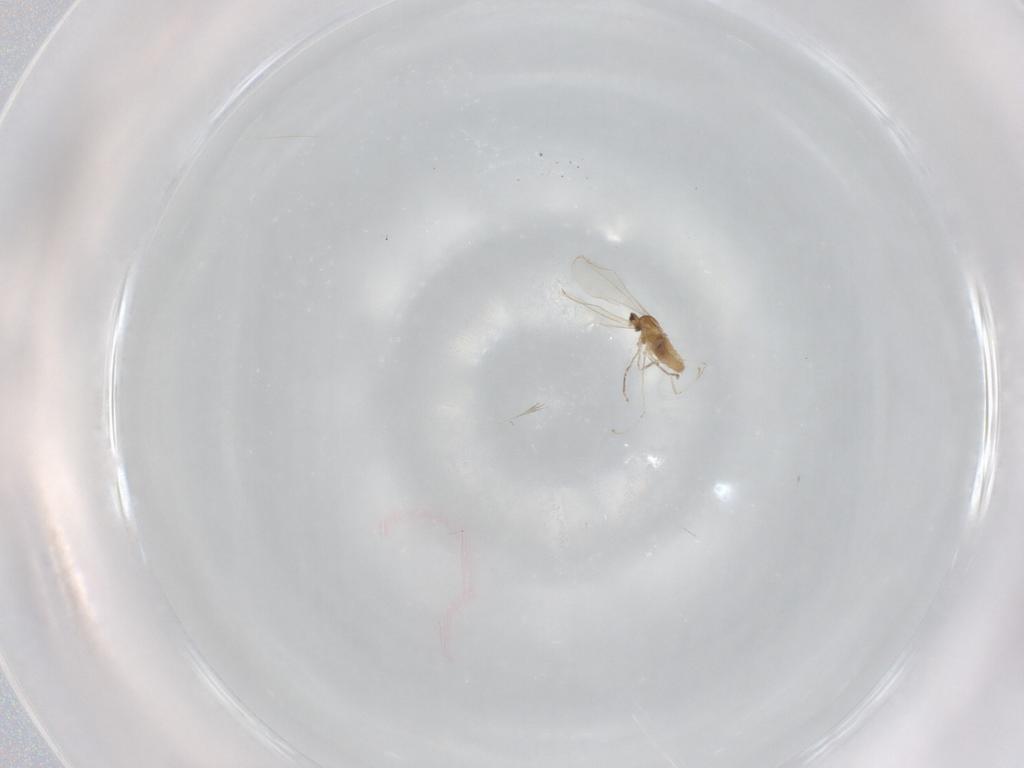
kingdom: Animalia
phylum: Arthropoda
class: Insecta
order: Diptera
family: Cecidomyiidae
